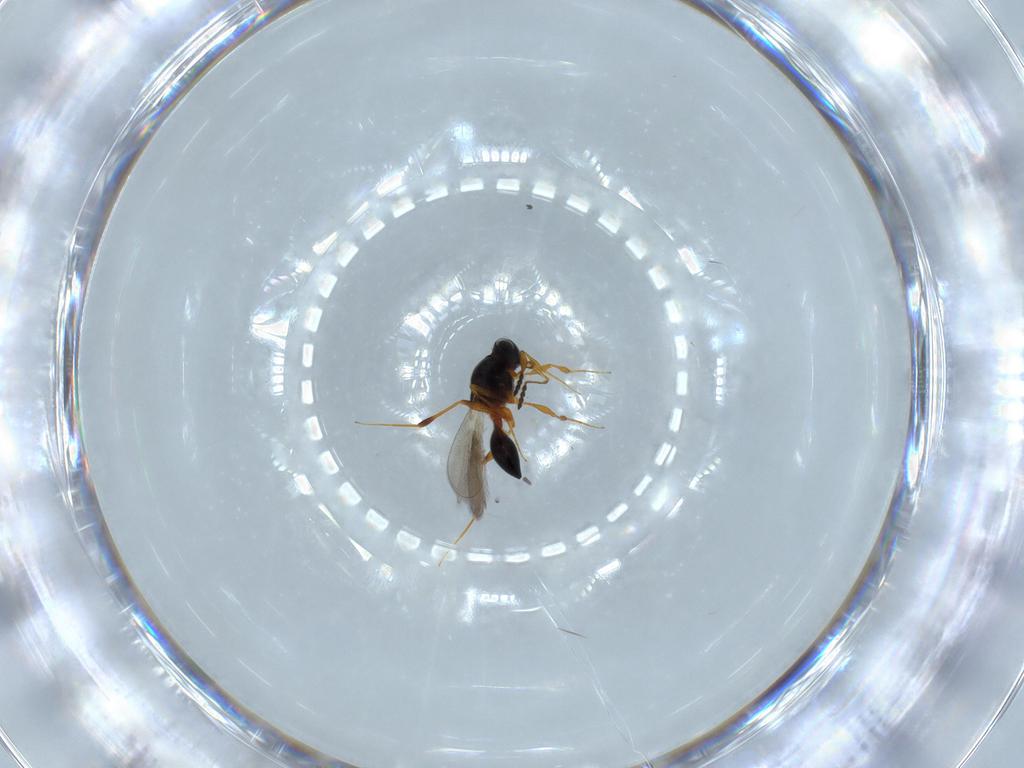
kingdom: Animalia
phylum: Arthropoda
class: Insecta
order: Hymenoptera
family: Platygastridae
